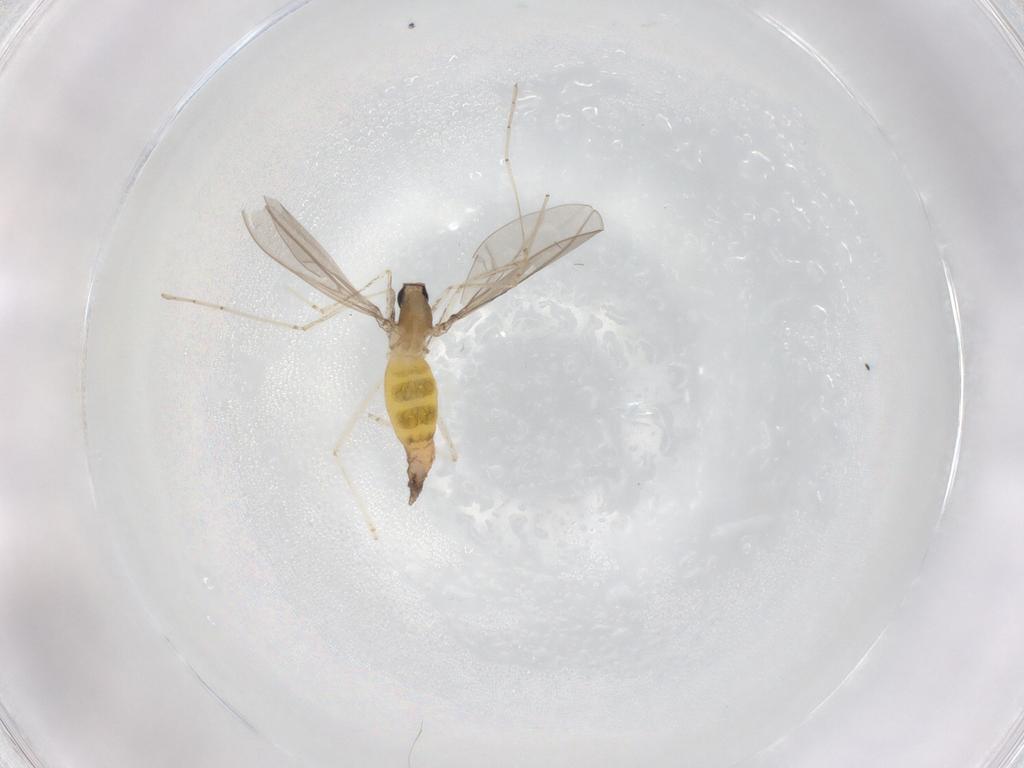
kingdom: Animalia
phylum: Arthropoda
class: Insecta
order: Diptera
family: Cecidomyiidae
